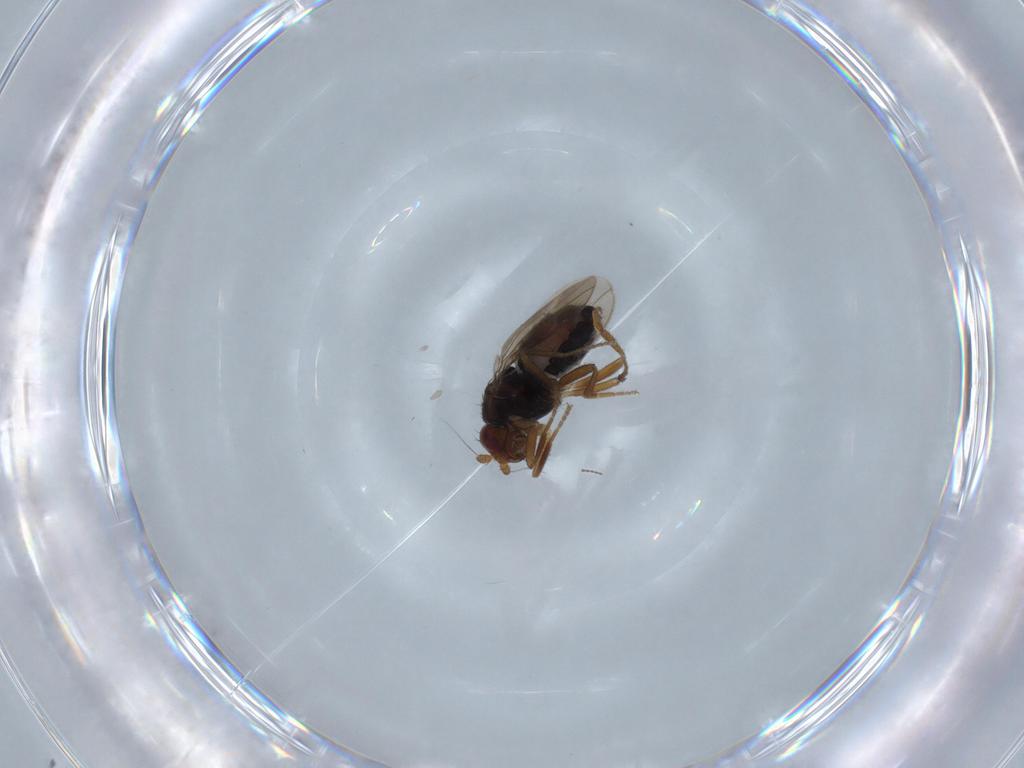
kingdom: Animalia
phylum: Arthropoda
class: Insecta
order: Diptera
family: Sphaeroceridae
